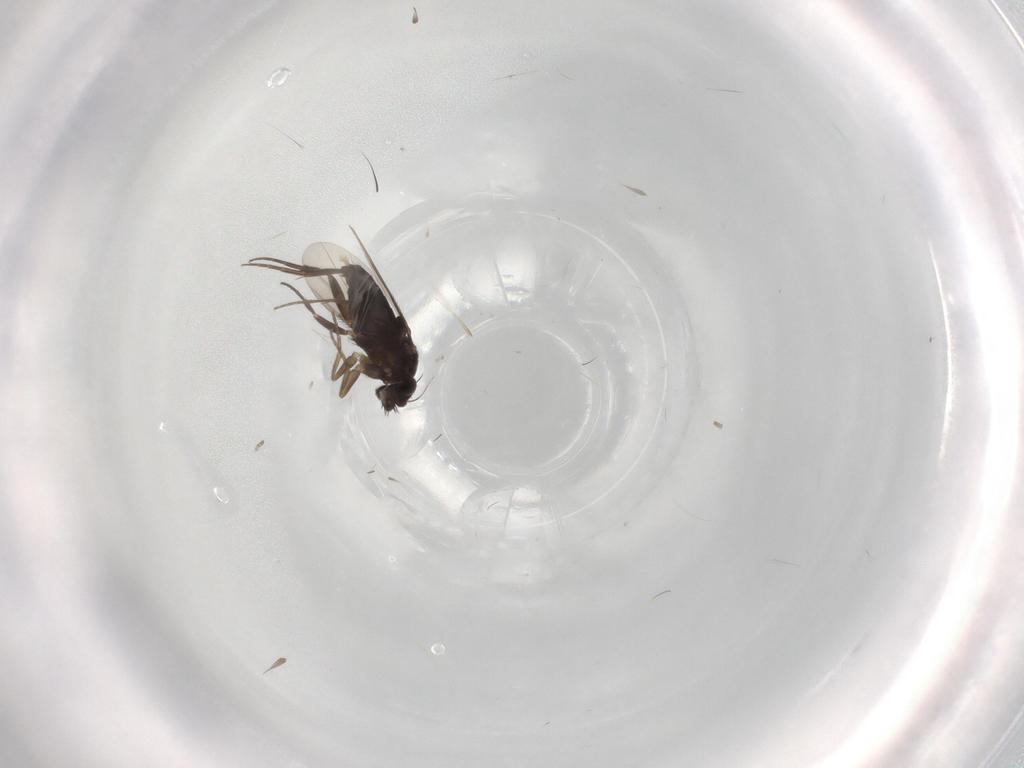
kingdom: Animalia
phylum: Arthropoda
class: Insecta
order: Diptera
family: Phoridae
